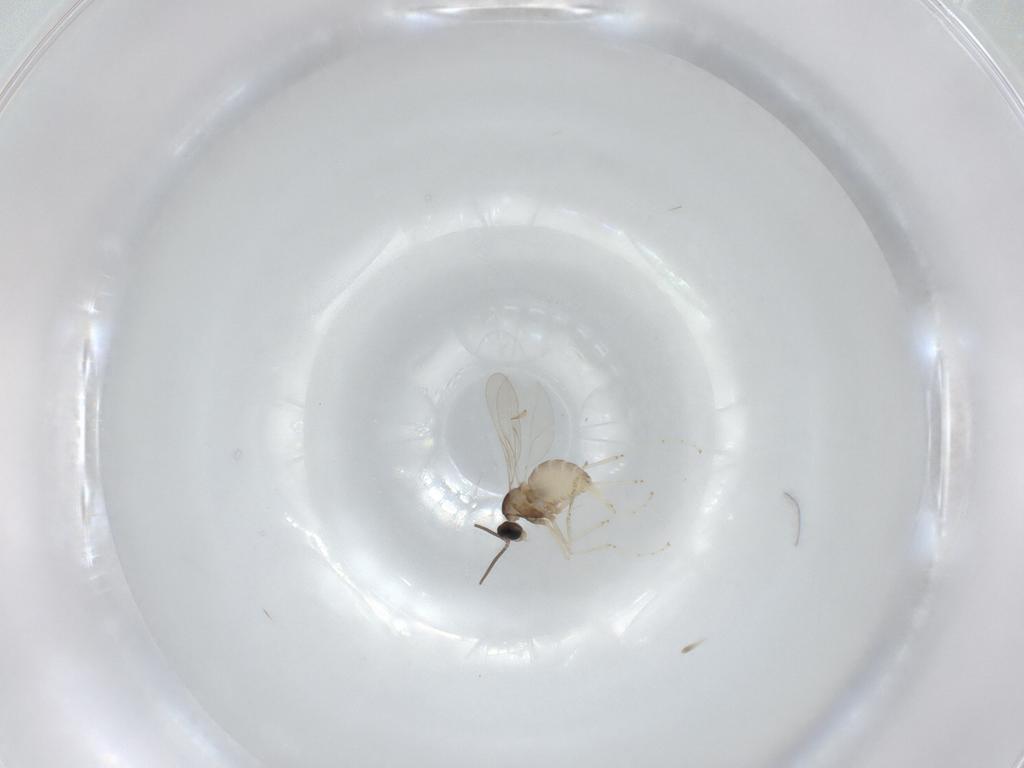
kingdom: Animalia
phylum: Arthropoda
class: Insecta
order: Diptera
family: Cecidomyiidae
